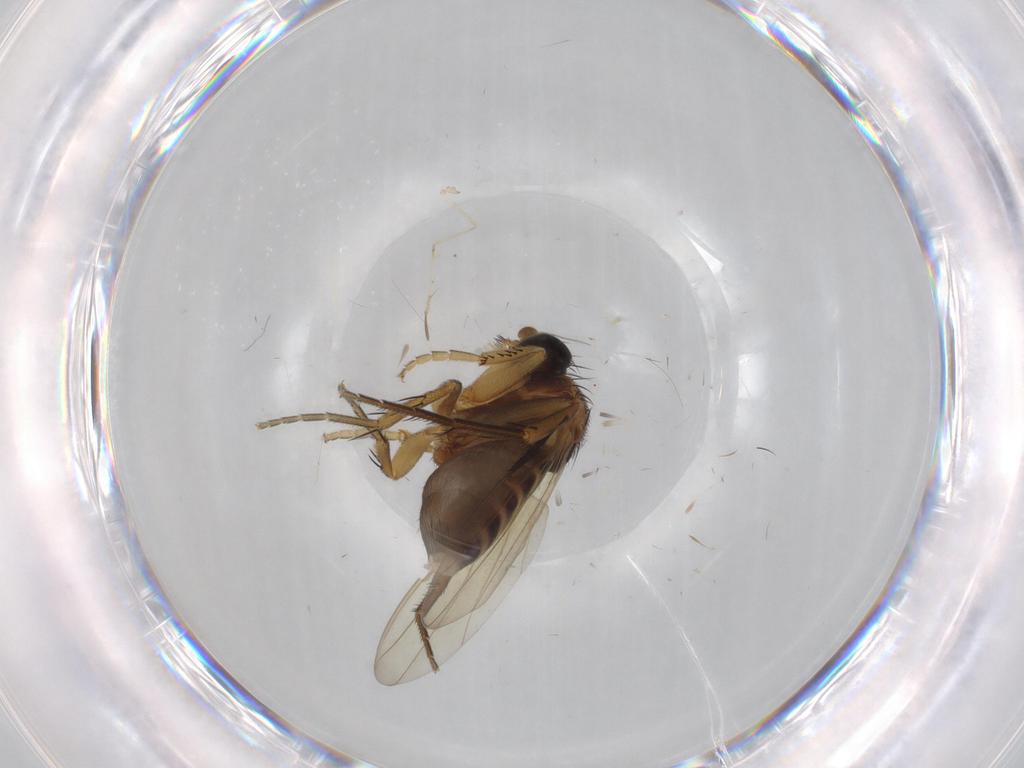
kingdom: Animalia
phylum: Arthropoda
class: Insecta
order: Diptera
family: Phoridae
